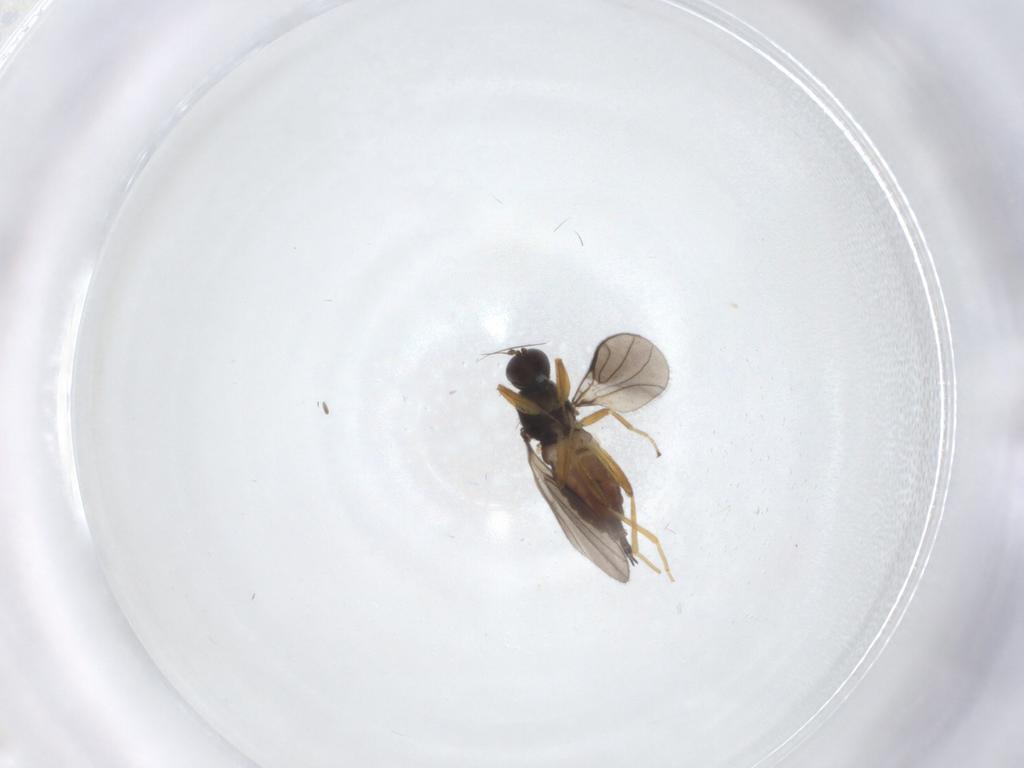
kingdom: Animalia
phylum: Arthropoda
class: Insecta
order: Diptera
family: Hybotidae
